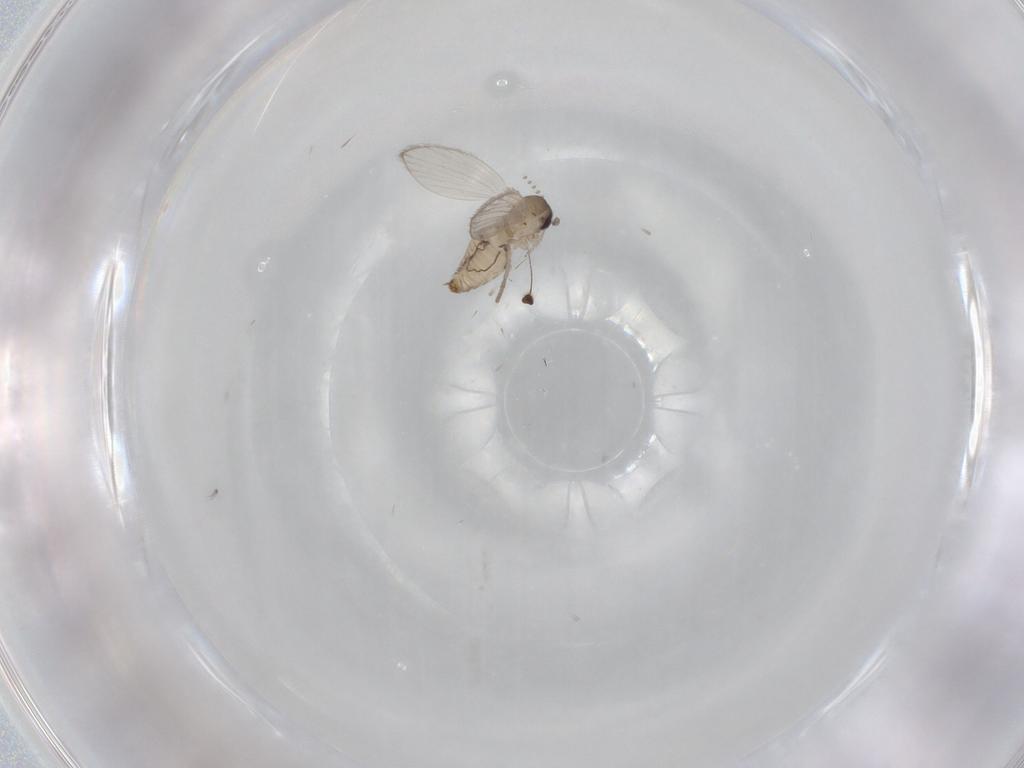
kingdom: Animalia
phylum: Arthropoda
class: Insecta
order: Diptera
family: Psychodidae
